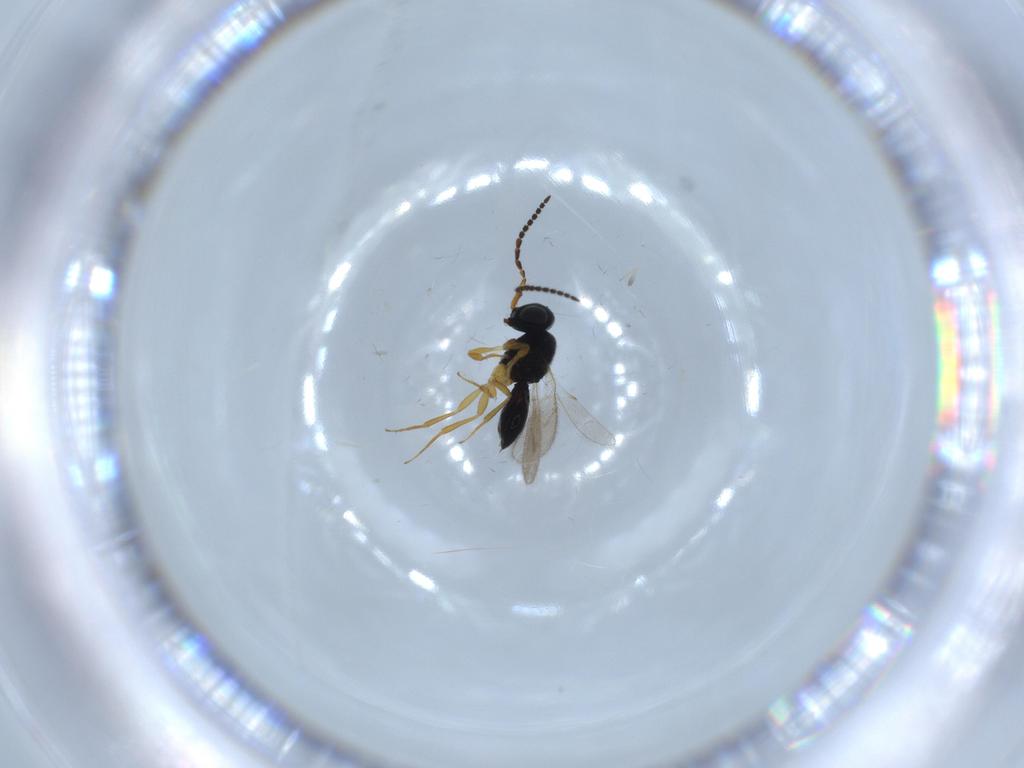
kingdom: Animalia
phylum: Arthropoda
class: Insecta
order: Hymenoptera
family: Scelionidae
